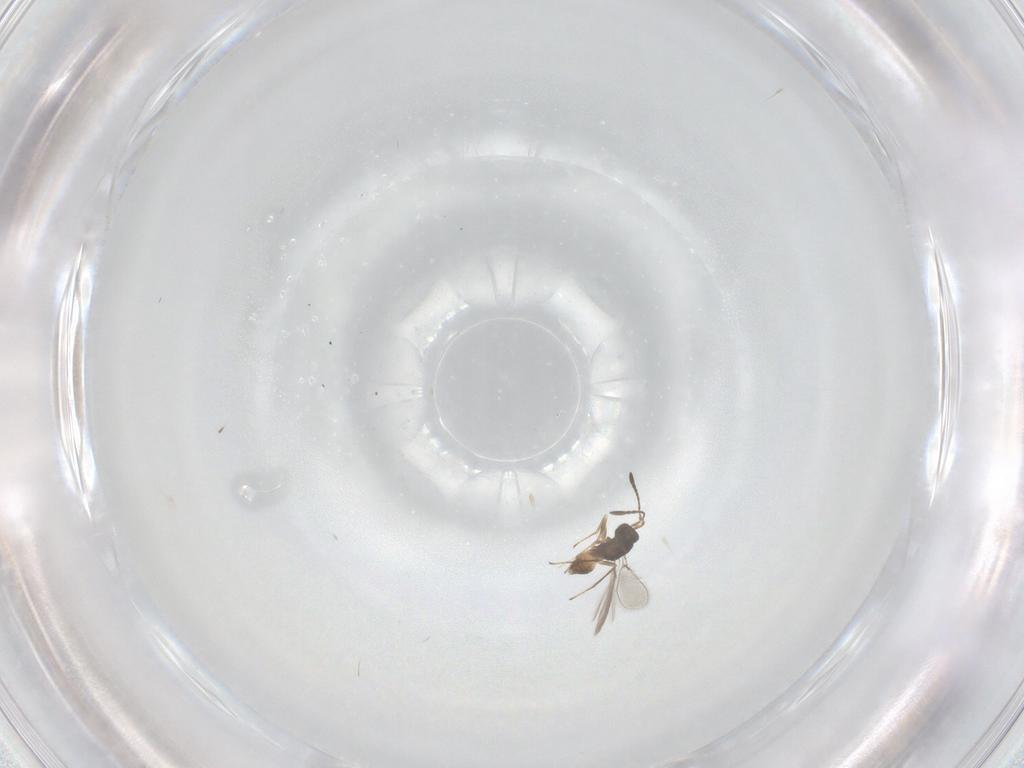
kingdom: Animalia
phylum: Arthropoda
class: Insecta
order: Hymenoptera
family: Mymaridae
